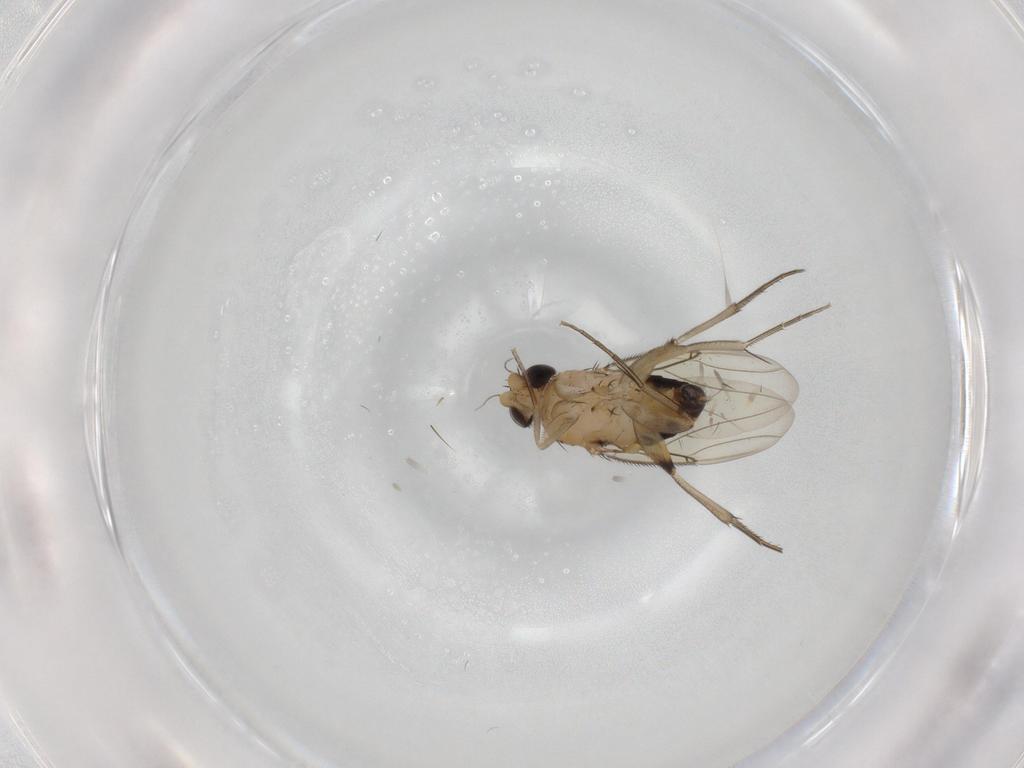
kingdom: Animalia
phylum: Arthropoda
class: Insecta
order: Diptera
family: Phoridae
